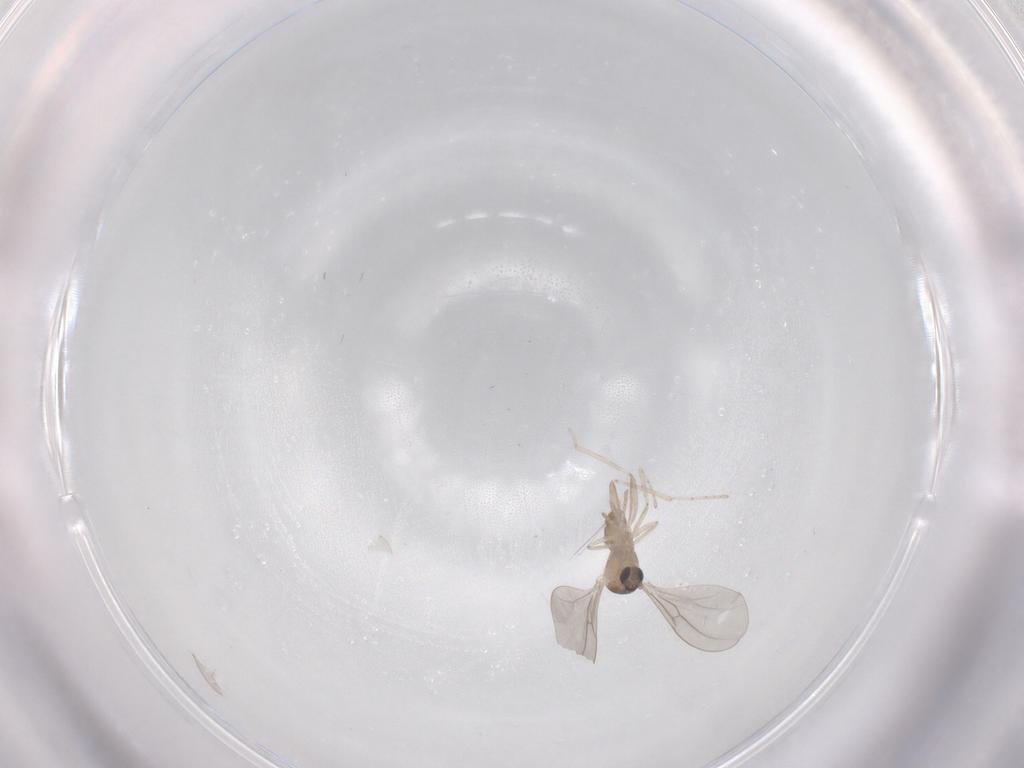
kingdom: Animalia
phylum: Arthropoda
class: Insecta
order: Diptera
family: Cecidomyiidae
